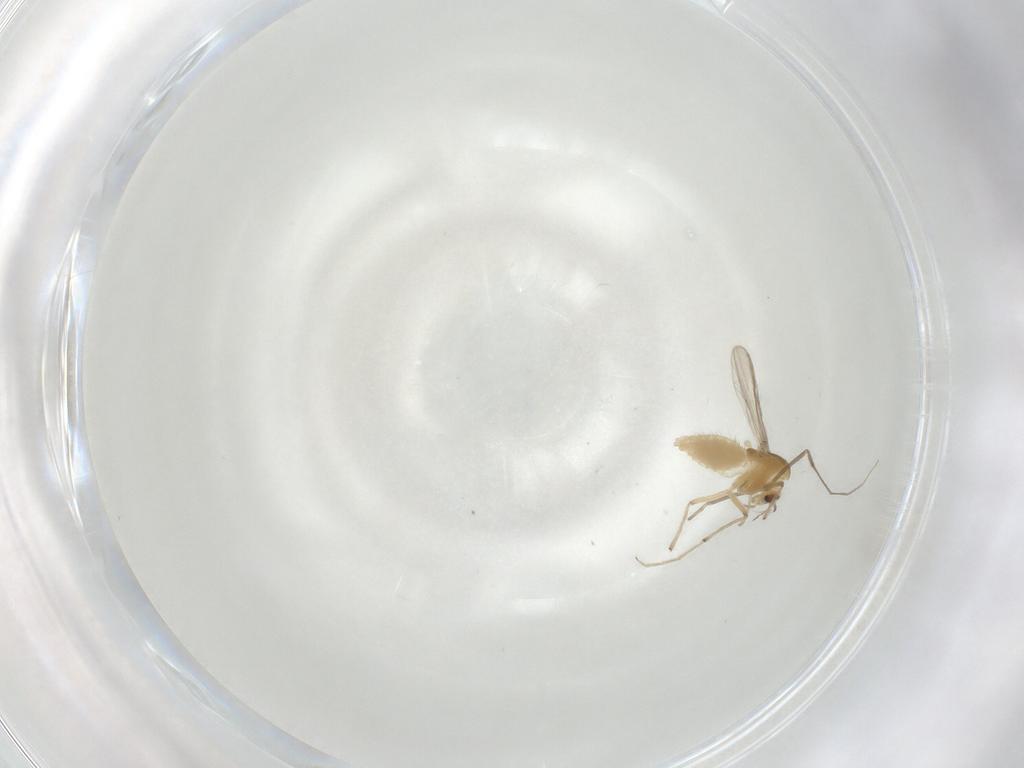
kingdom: Animalia
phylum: Arthropoda
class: Insecta
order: Diptera
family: Chironomidae
